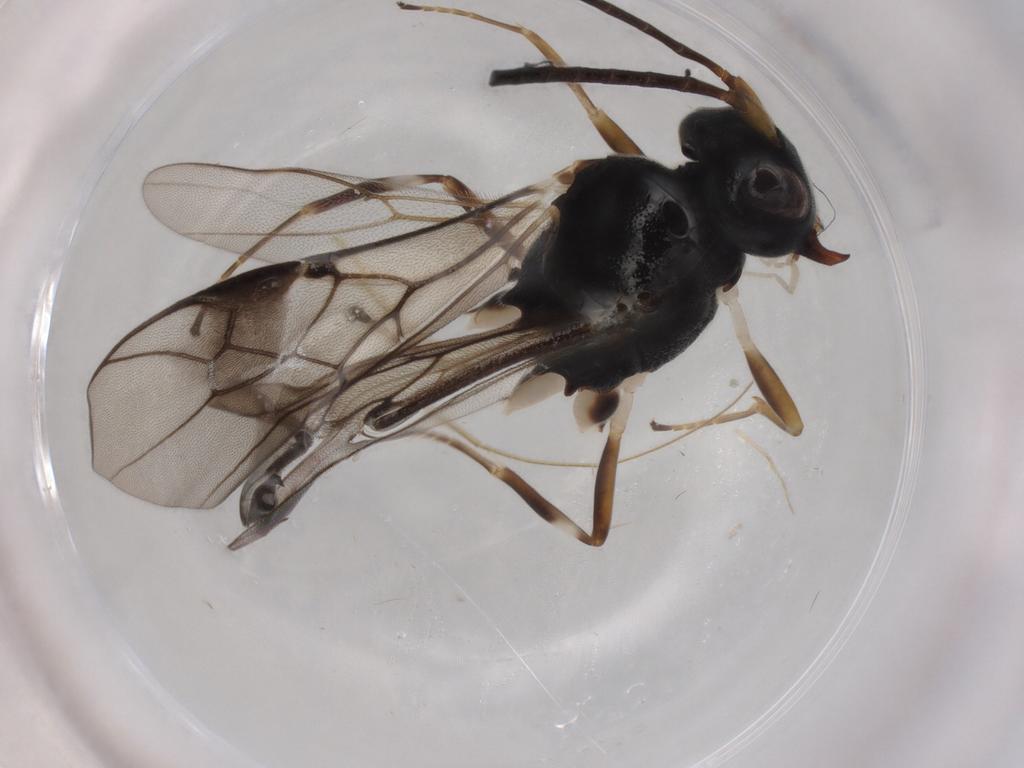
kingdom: Animalia
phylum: Arthropoda
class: Insecta
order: Hymenoptera
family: Braconidae
